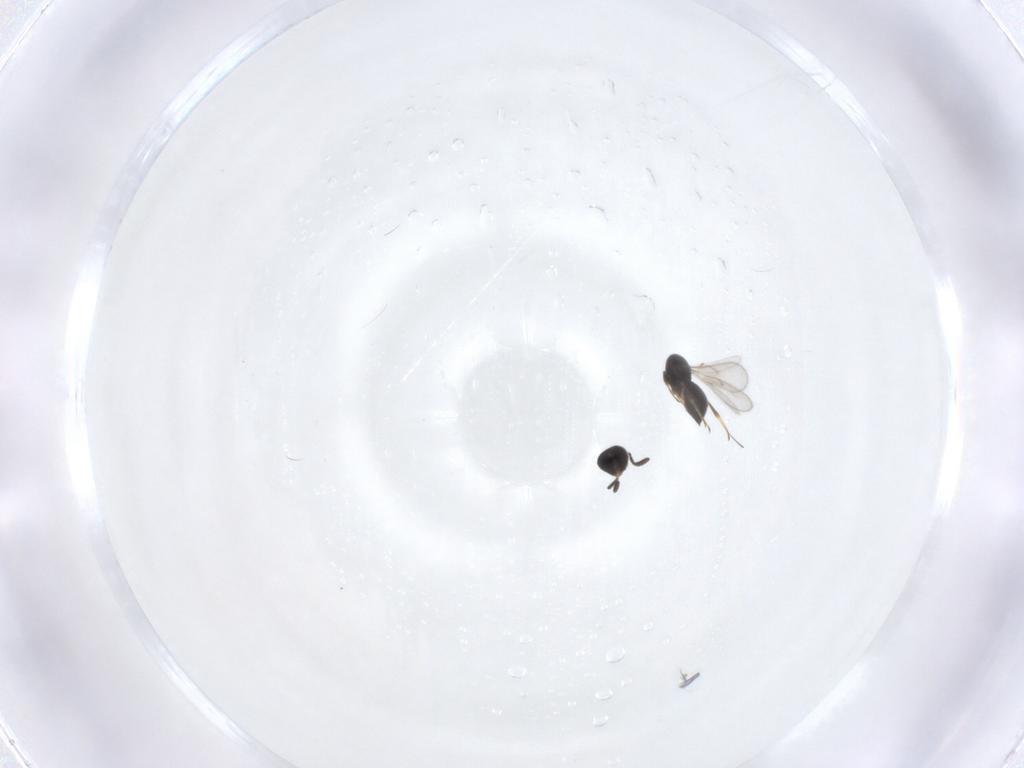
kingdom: Animalia
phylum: Arthropoda
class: Insecta
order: Hymenoptera
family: Scelionidae
